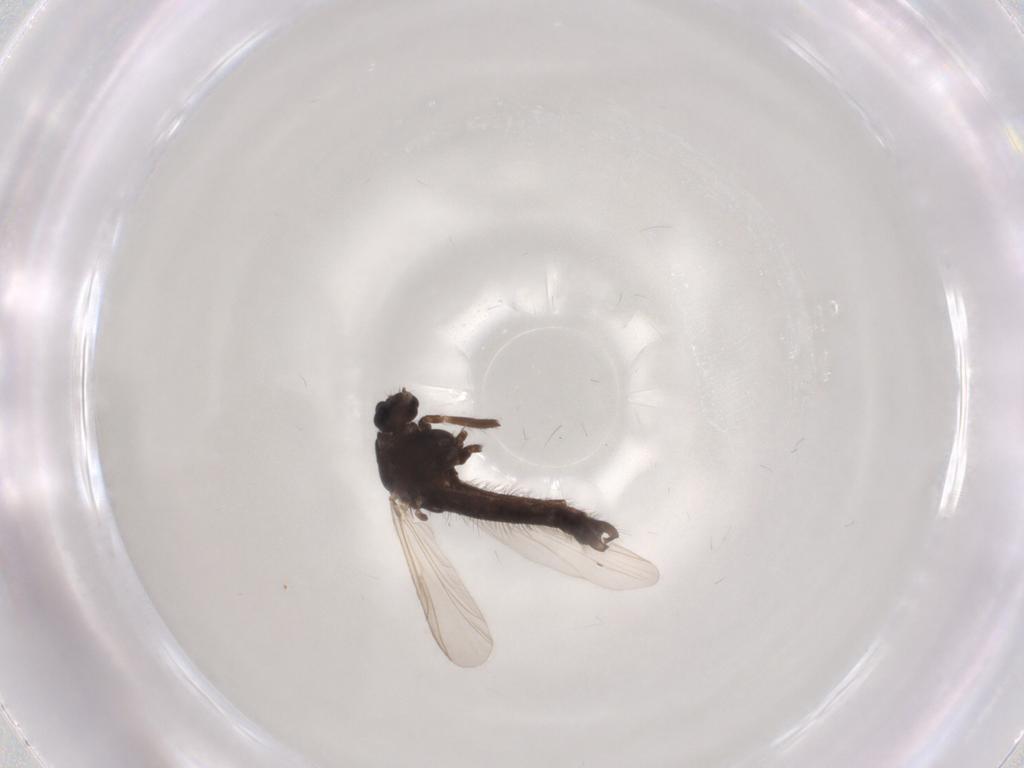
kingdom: Animalia
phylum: Arthropoda
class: Insecta
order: Diptera
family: Chironomidae
